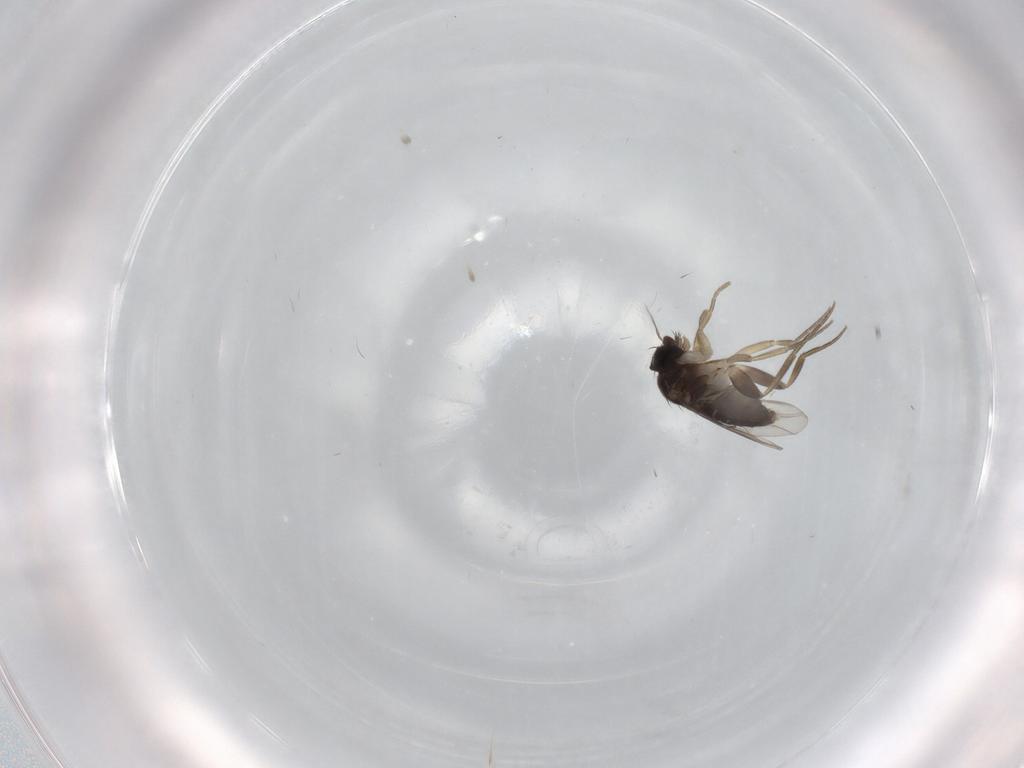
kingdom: Animalia
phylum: Arthropoda
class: Insecta
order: Diptera
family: Phoridae
